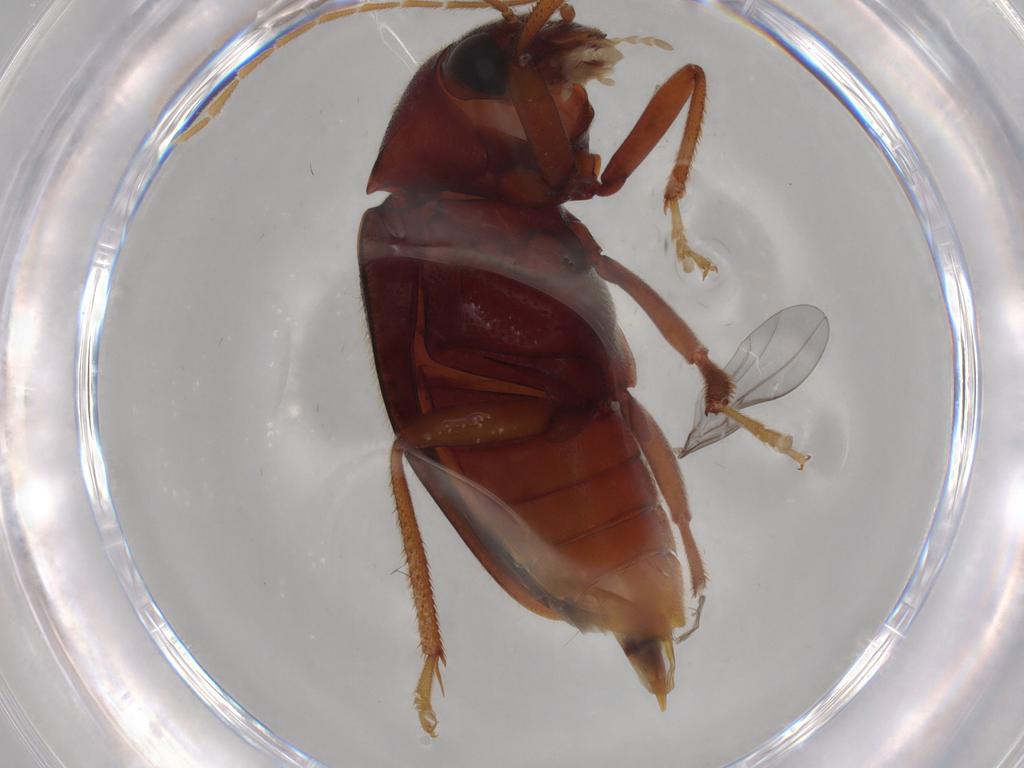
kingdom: Animalia
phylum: Arthropoda
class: Insecta
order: Coleoptera
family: Ptilodactylidae
